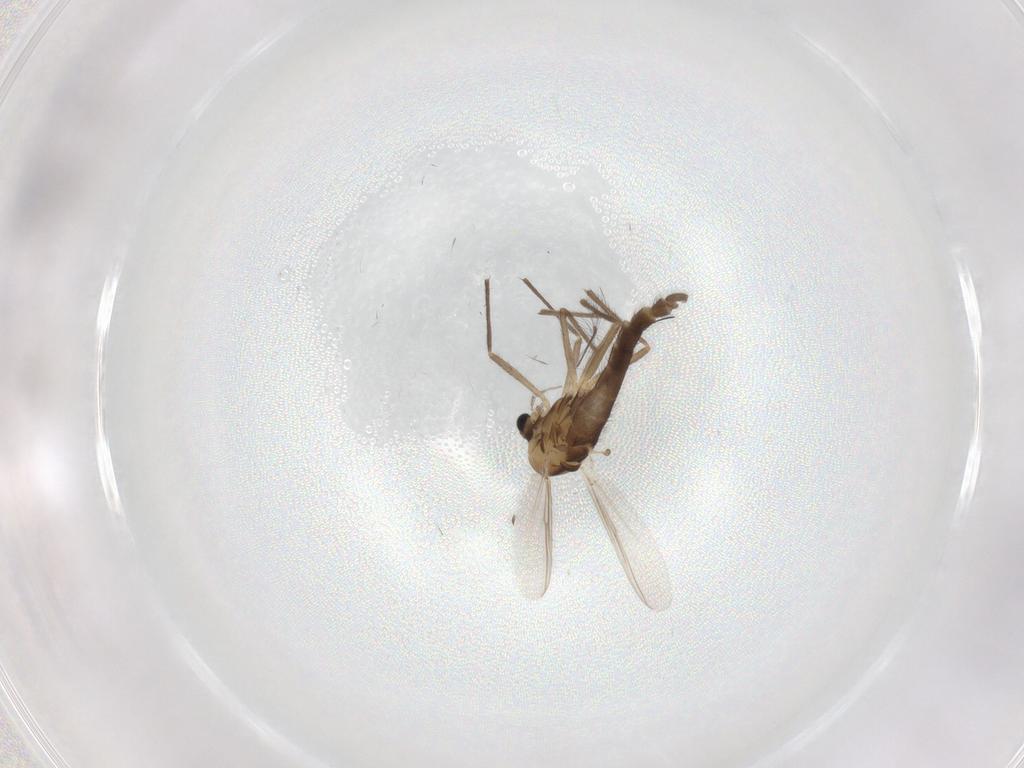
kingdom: Animalia
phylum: Arthropoda
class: Insecta
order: Diptera
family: Chironomidae
